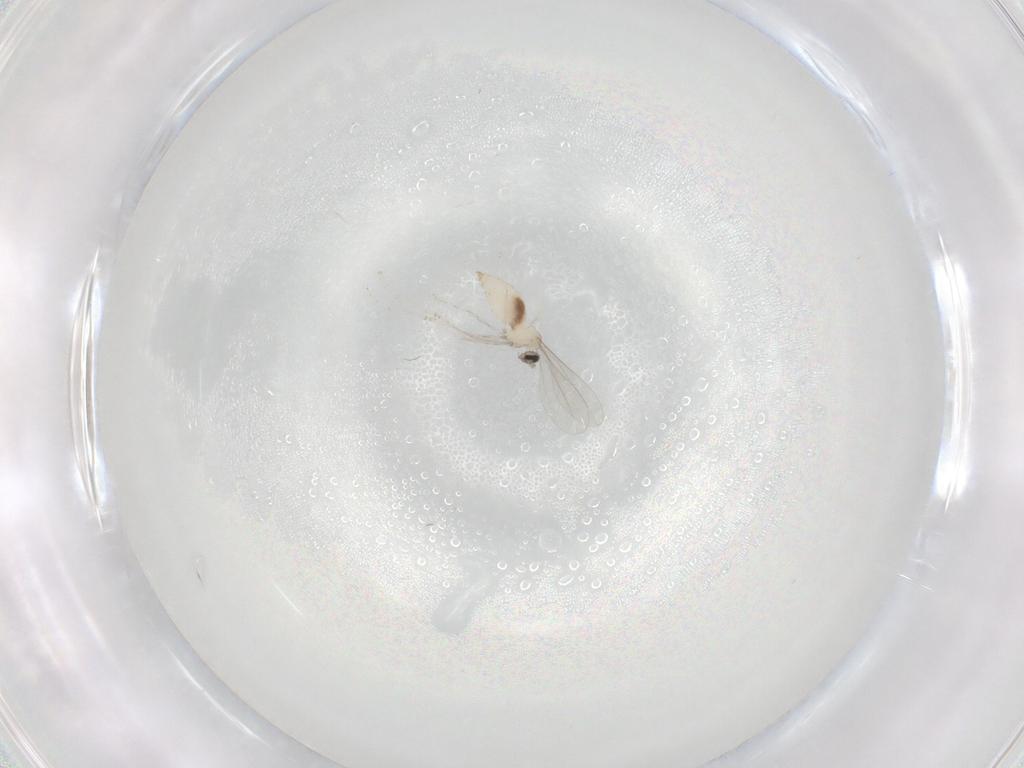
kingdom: Animalia
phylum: Arthropoda
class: Insecta
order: Diptera
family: Cecidomyiidae
